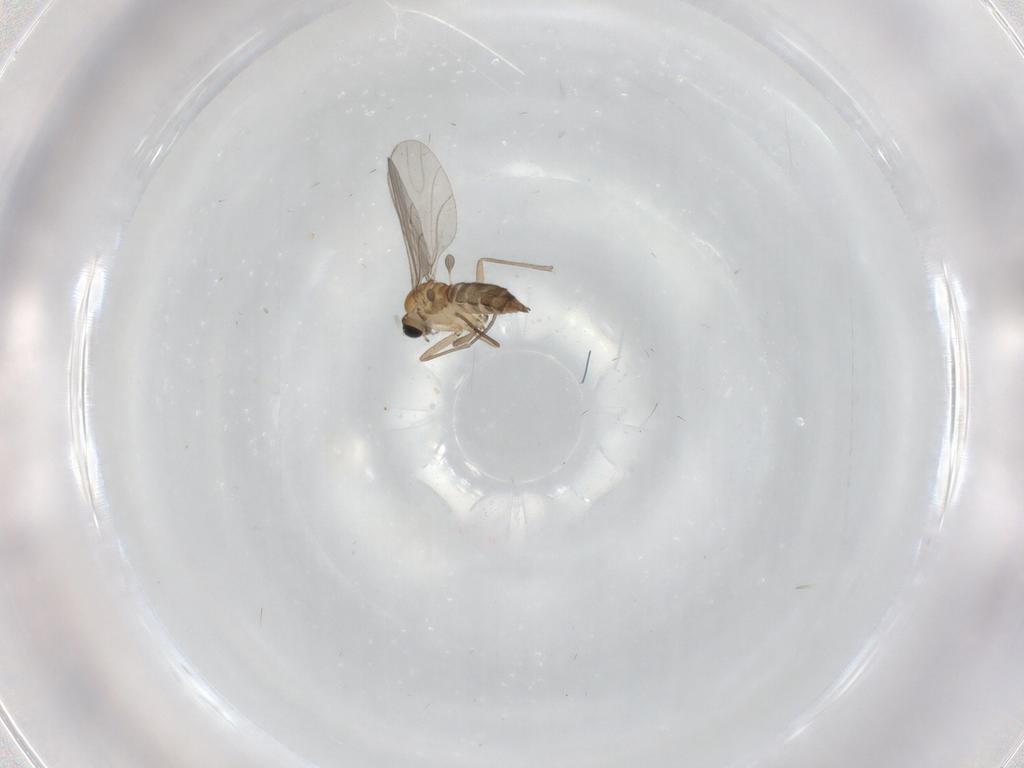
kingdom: Animalia
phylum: Arthropoda
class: Insecta
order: Diptera
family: Sciaridae
